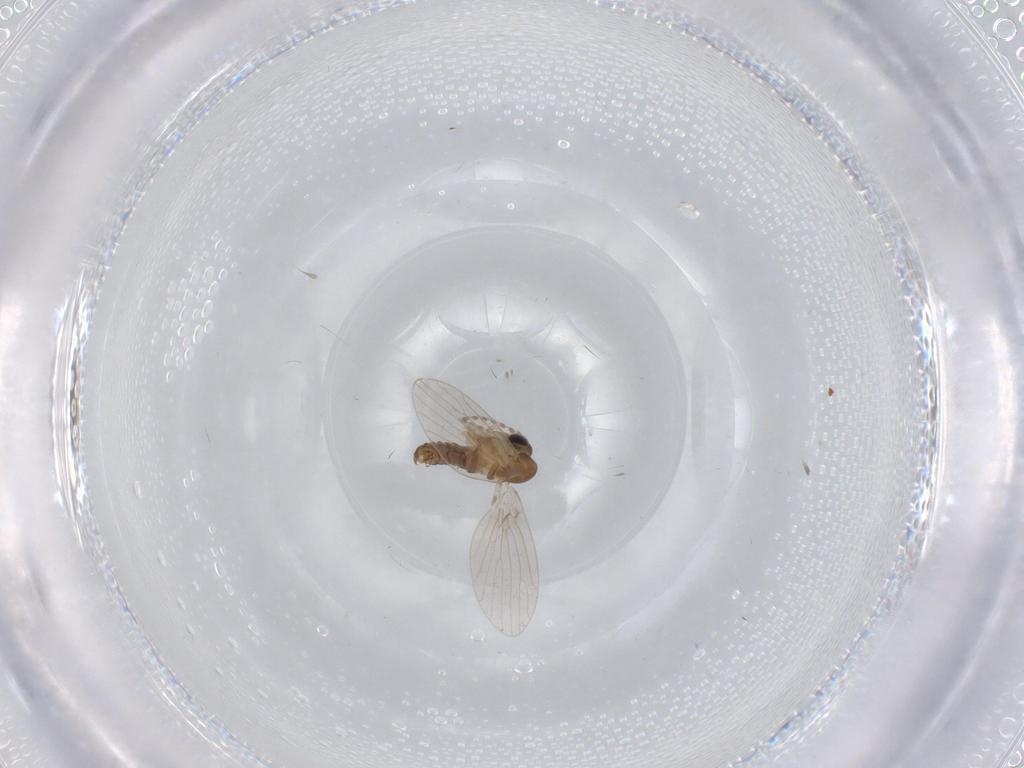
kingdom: Animalia
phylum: Arthropoda
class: Insecta
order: Diptera
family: Psychodidae
